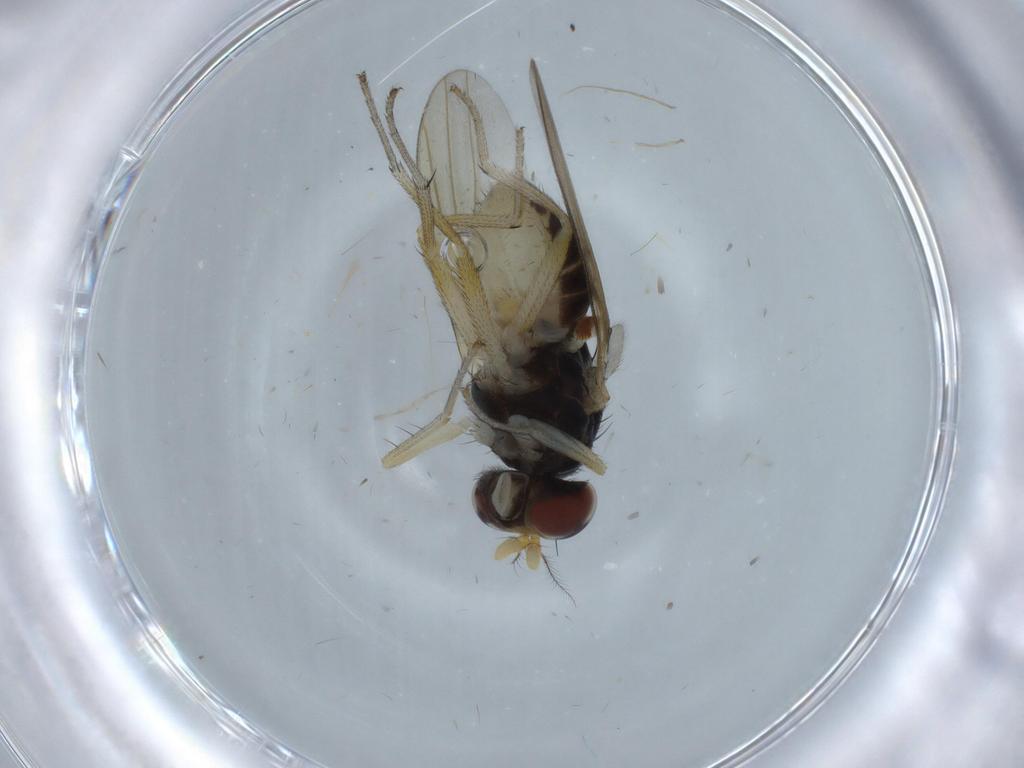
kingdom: Animalia
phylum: Arthropoda
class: Insecta
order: Diptera
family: Lauxaniidae
